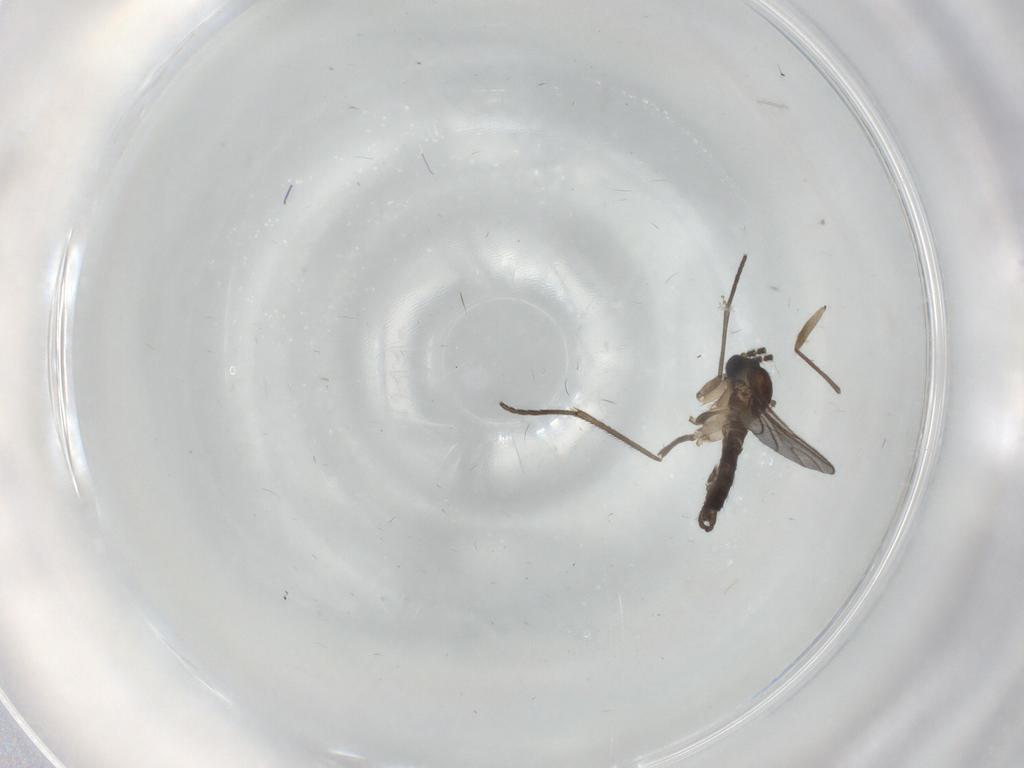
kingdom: Animalia
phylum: Arthropoda
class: Insecta
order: Diptera
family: Sciaridae
